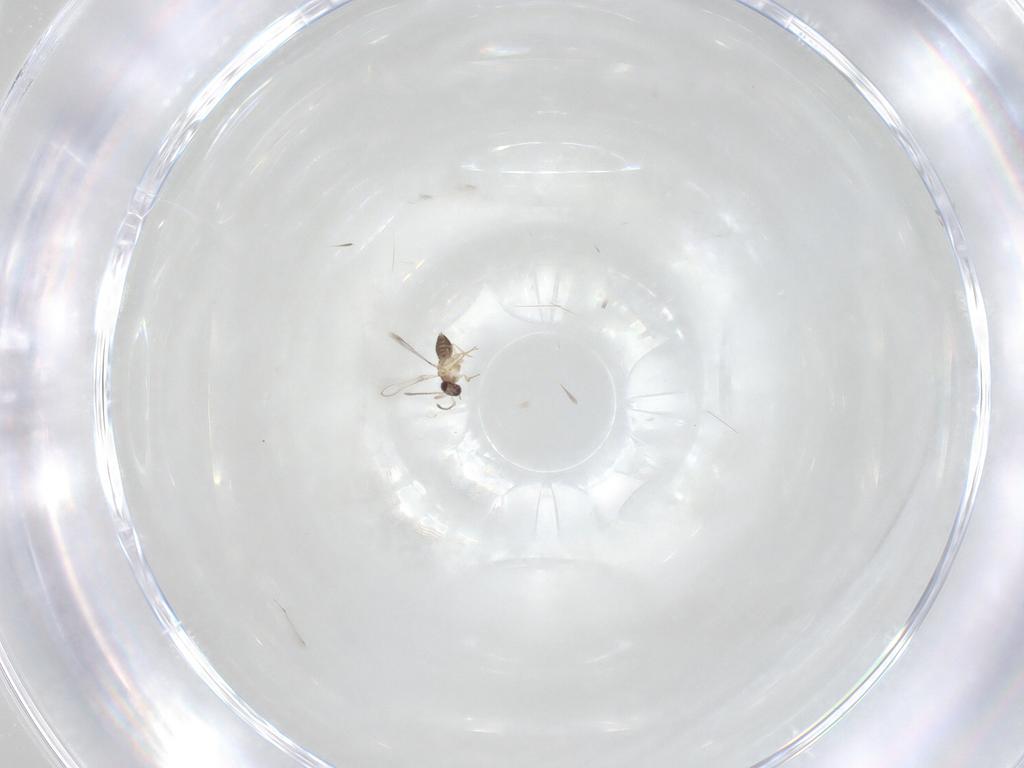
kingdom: Animalia
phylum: Arthropoda
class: Insecta
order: Hymenoptera
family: Mymaridae
